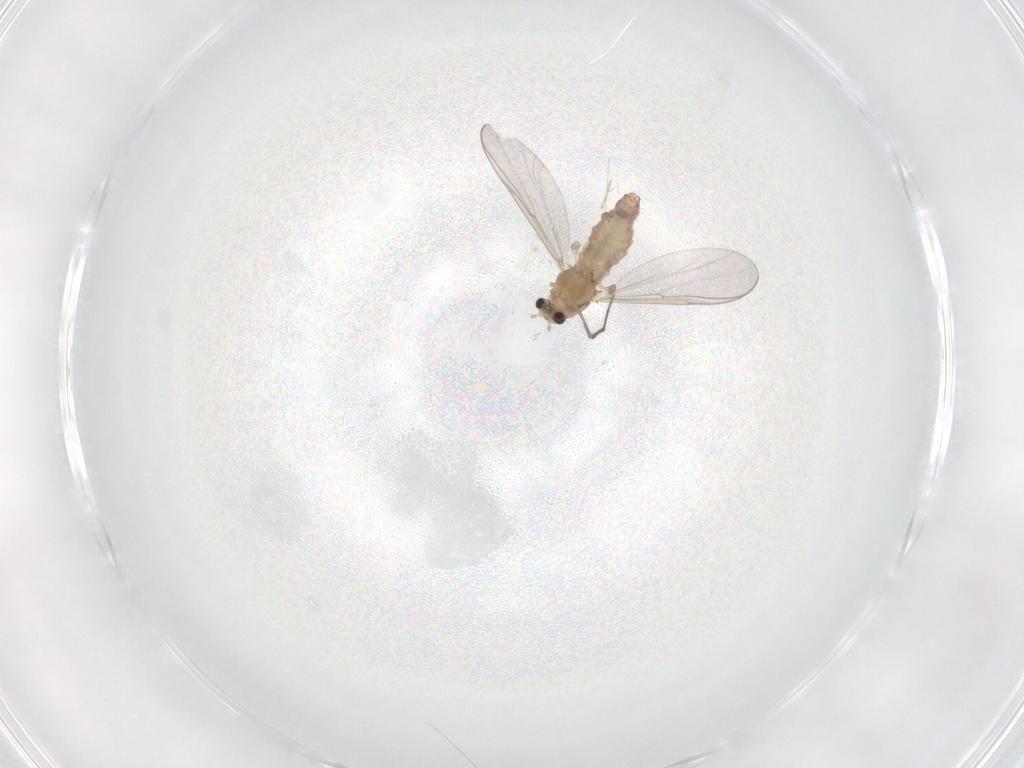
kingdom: Animalia
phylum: Arthropoda
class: Insecta
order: Diptera
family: Chironomidae
